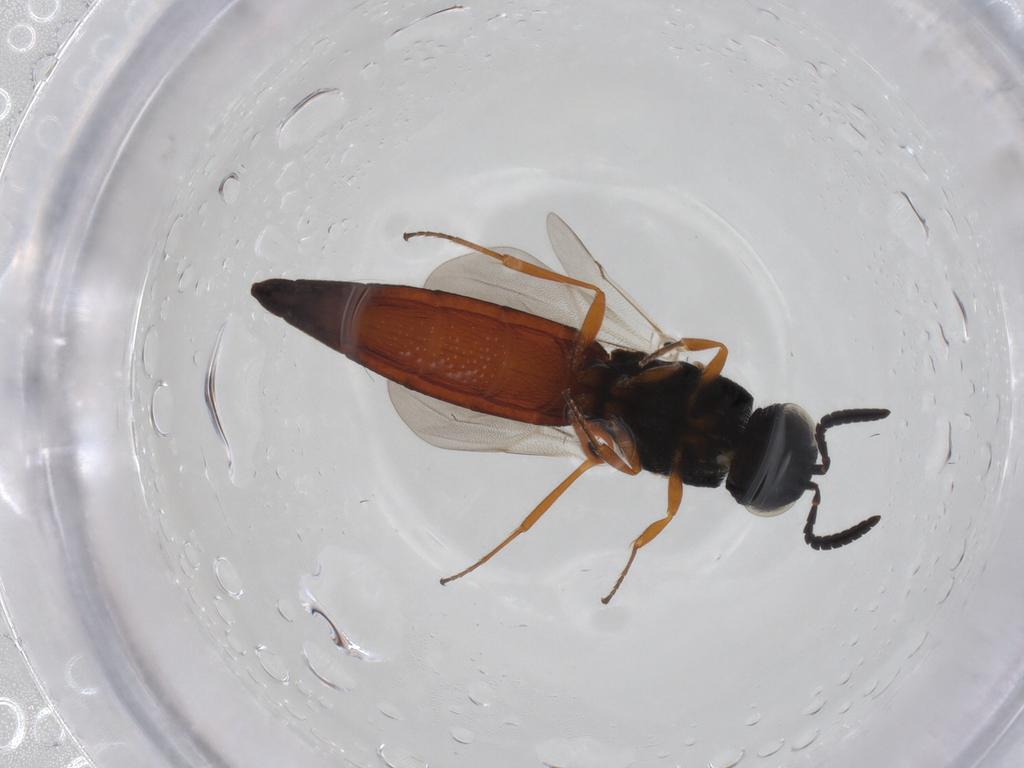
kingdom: Animalia
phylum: Arthropoda
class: Insecta
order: Hymenoptera
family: Scelionidae
